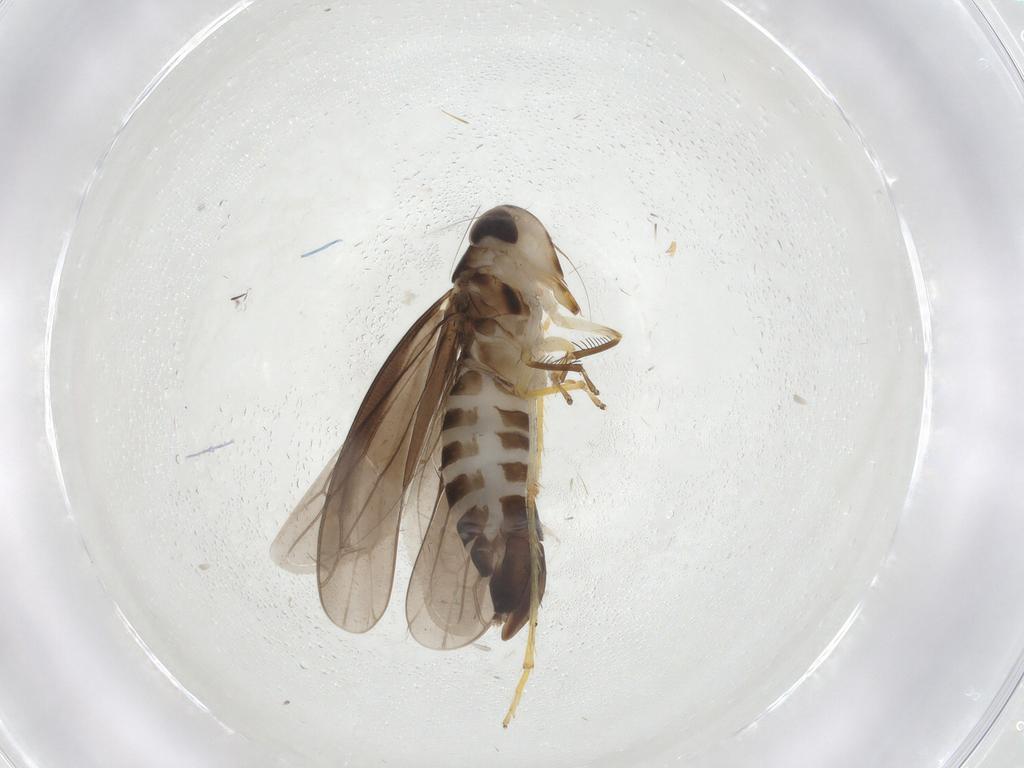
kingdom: Animalia
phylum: Arthropoda
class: Insecta
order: Hemiptera
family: Cicadellidae
